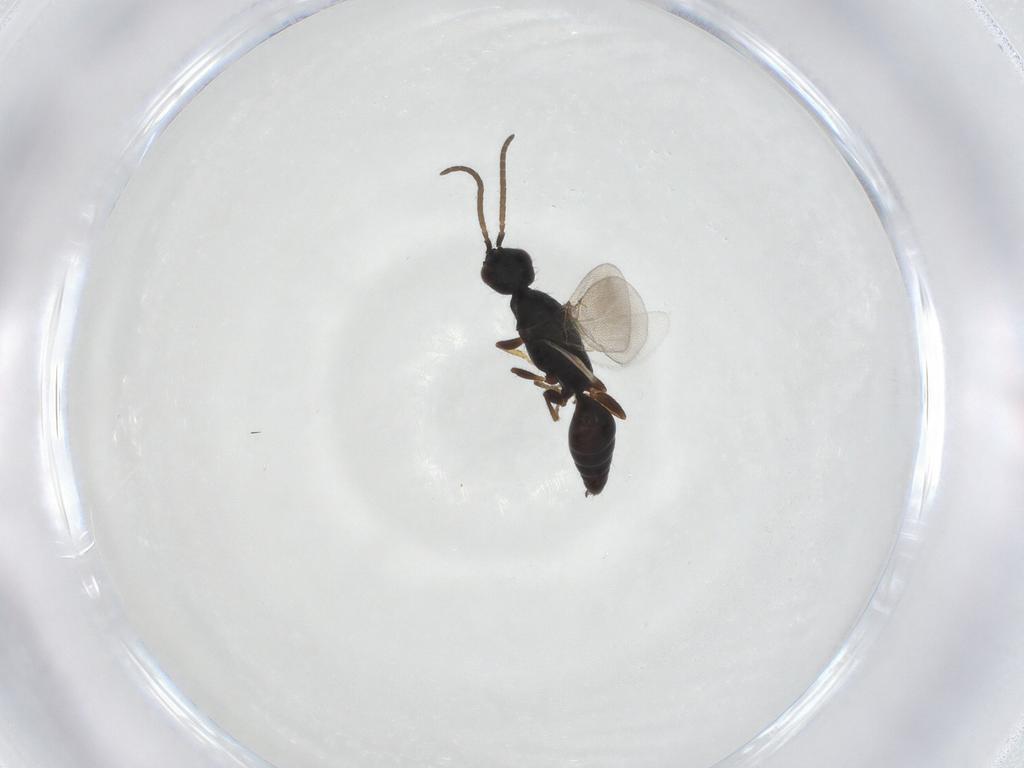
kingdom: Animalia
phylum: Arthropoda
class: Insecta
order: Hymenoptera
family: Bethylidae
